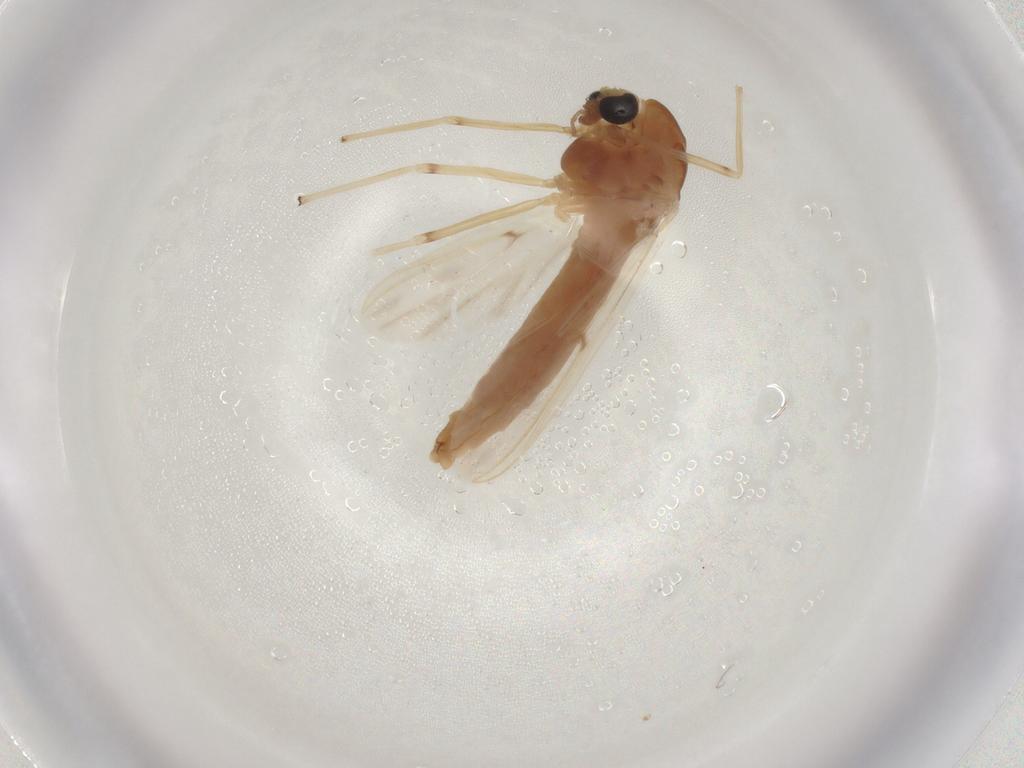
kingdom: Animalia
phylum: Arthropoda
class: Insecta
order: Diptera
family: Chironomidae
